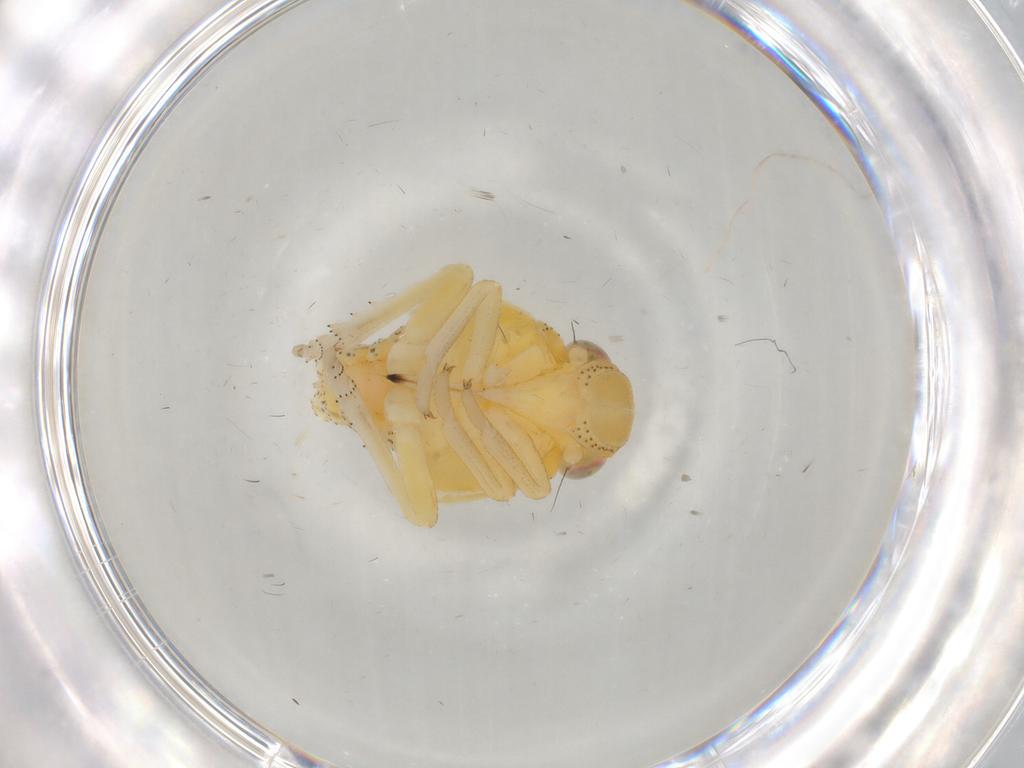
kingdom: Animalia
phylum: Arthropoda
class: Insecta
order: Hemiptera
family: Tropiduchidae
